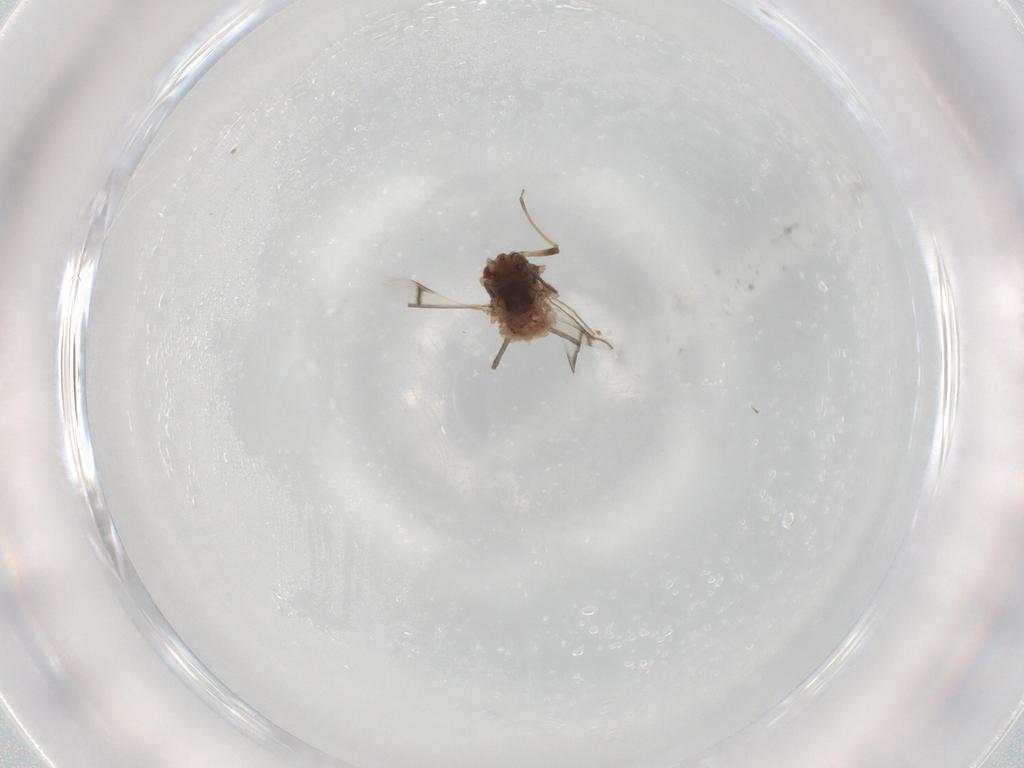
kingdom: Animalia
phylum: Arthropoda
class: Insecta
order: Hemiptera
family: Aphididae
